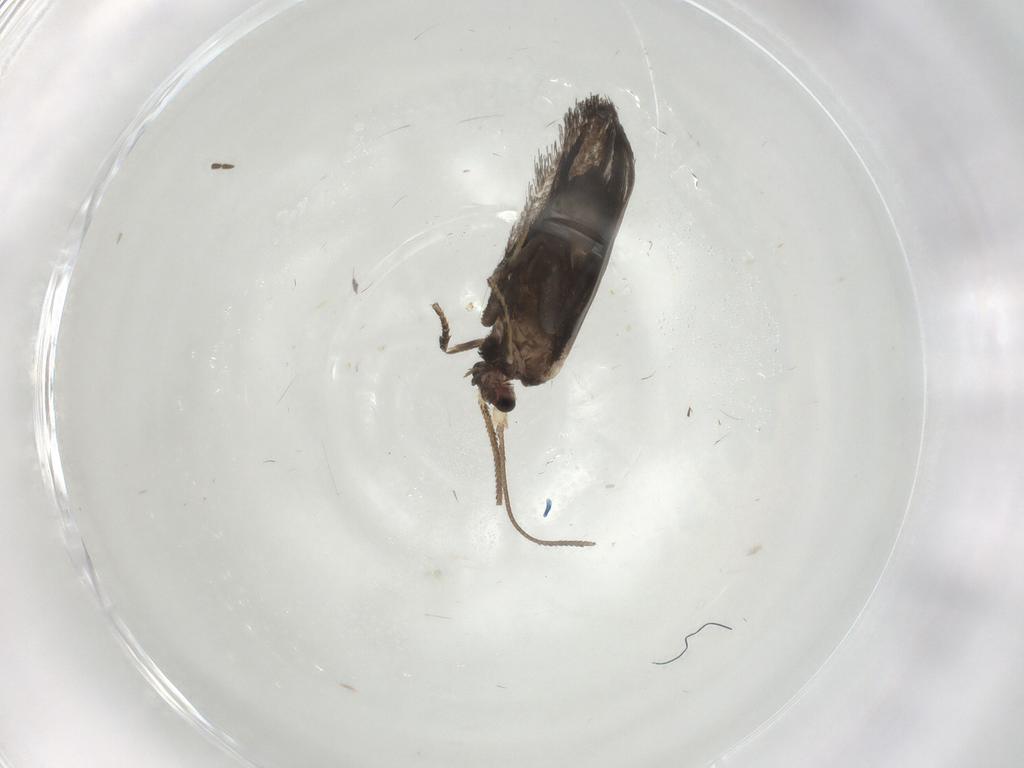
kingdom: Animalia
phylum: Arthropoda
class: Insecta
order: Lepidoptera
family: Nepticulidae
